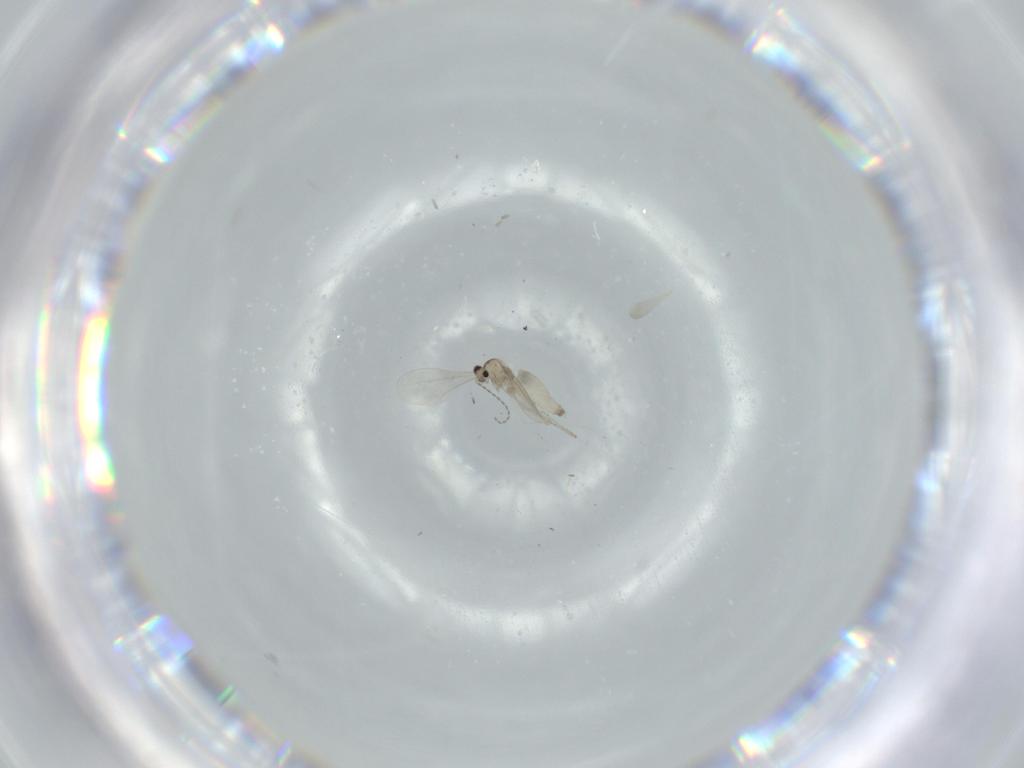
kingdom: Animalia
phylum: Arthropoda
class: Insecta
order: Diptera
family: Cecidomyiidae
